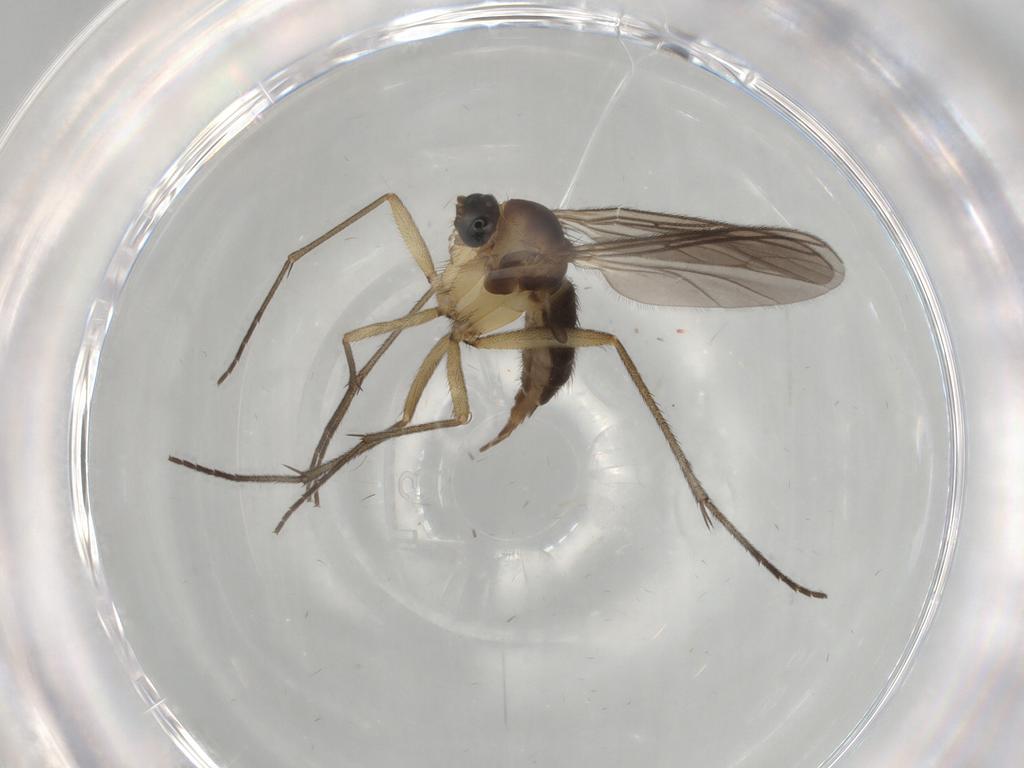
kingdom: Animalia
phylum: Arthropoda
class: Insecta
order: Diptera
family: Sciaridae
